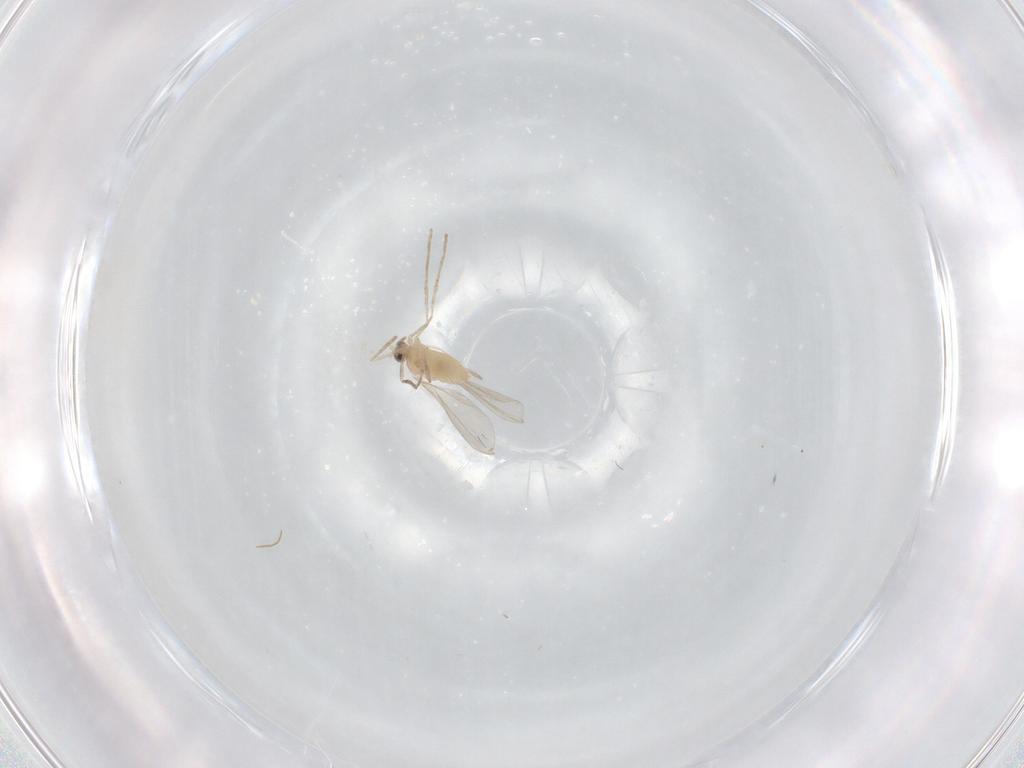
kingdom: Animalia
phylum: Arthropoda
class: Insecta
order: Diptera
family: Cecidomyiidae
